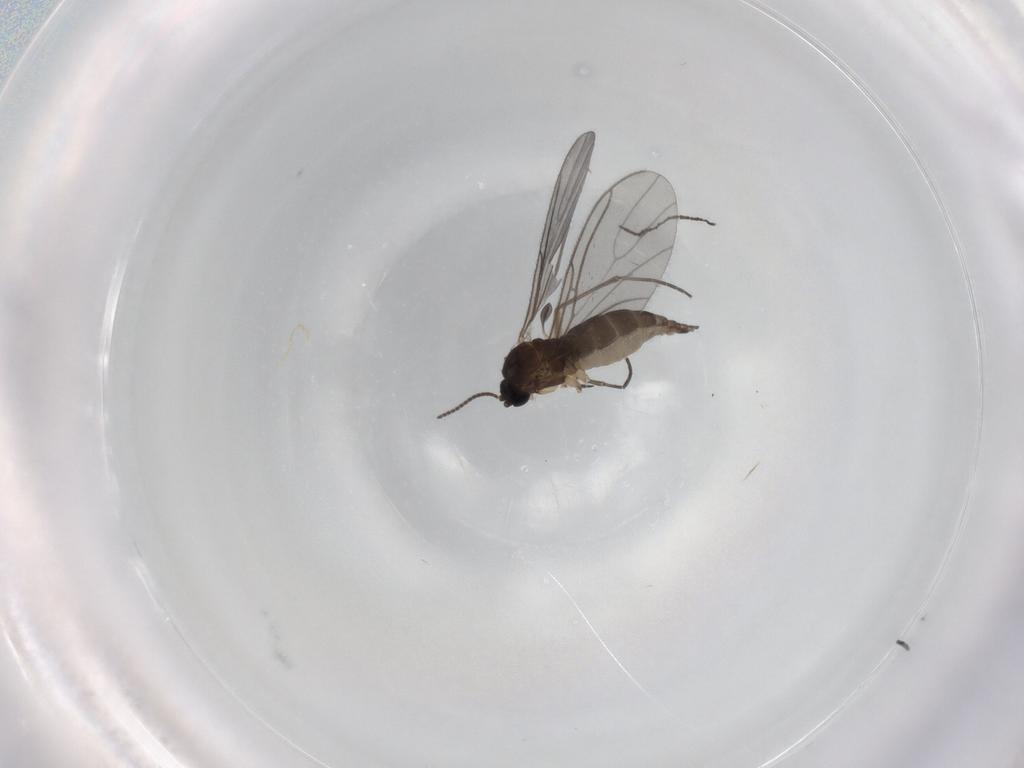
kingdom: Animalia
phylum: Arthropoda
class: Insecta
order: Diptera
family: Sciaridae
